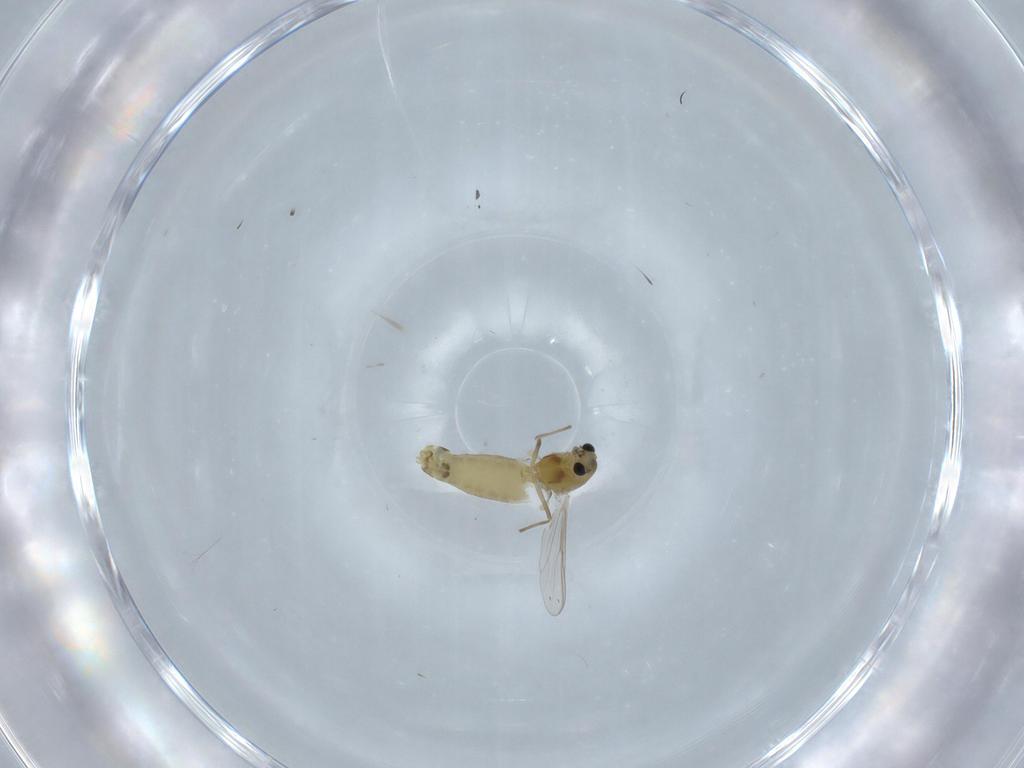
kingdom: Animalia
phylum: Arthropoda
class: Insecta
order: Diptera
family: Chironomidae
